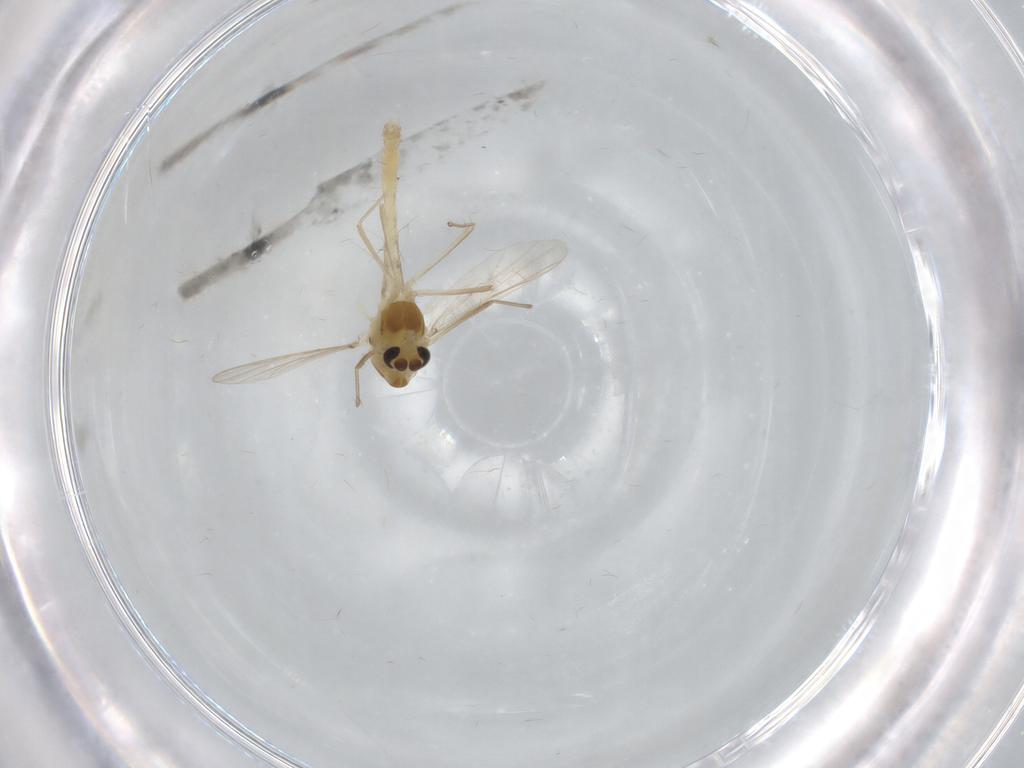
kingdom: Animalia
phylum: Arthropoda
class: Insecta
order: Diptera
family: Chironomidae
